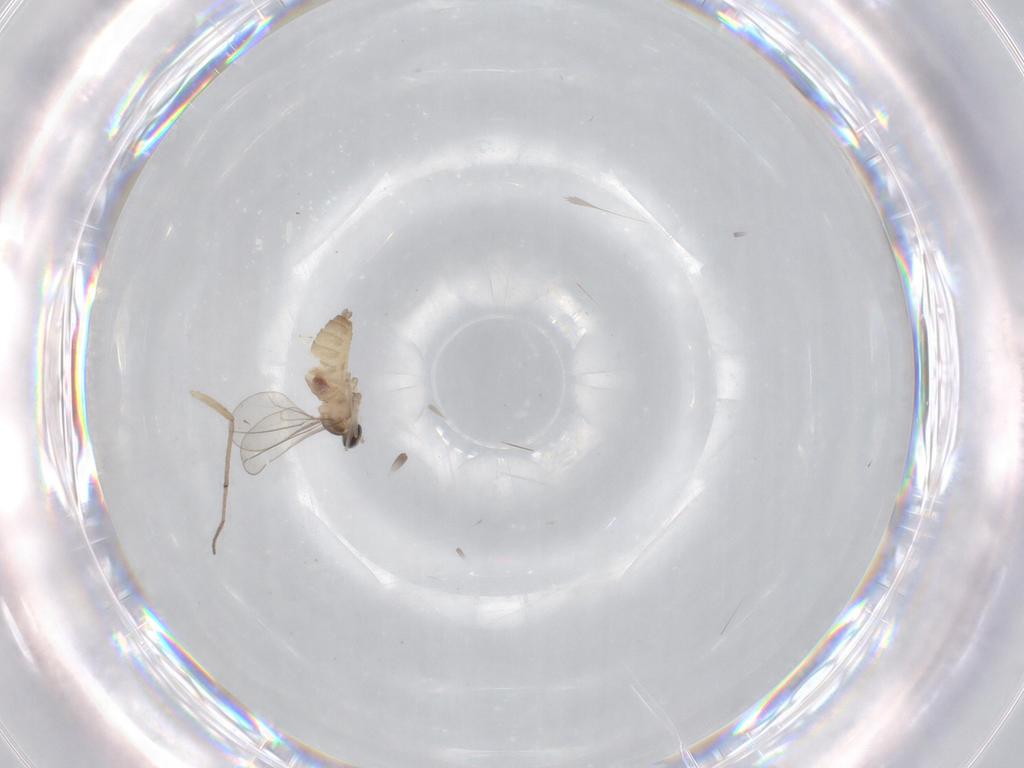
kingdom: Animalia
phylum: Arthropoda
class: Insecta
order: Diptera
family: Cecidomyiidae
